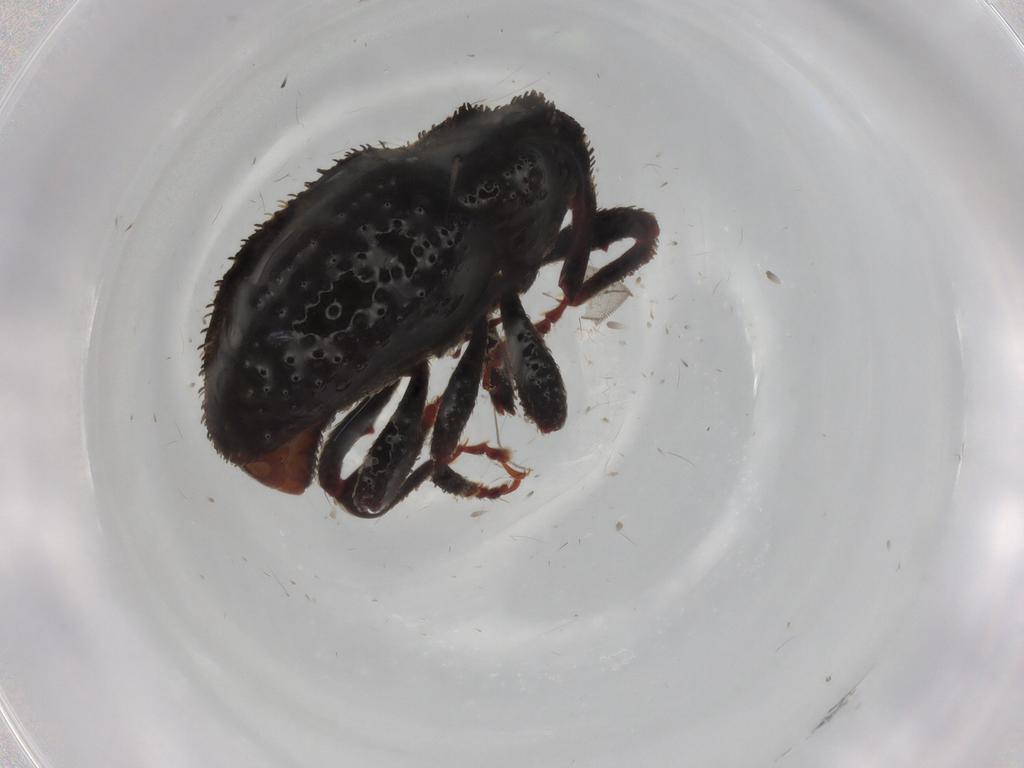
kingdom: Animalia
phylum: Arthropoda
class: Insecta
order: Coleoptera
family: Curculionidae
